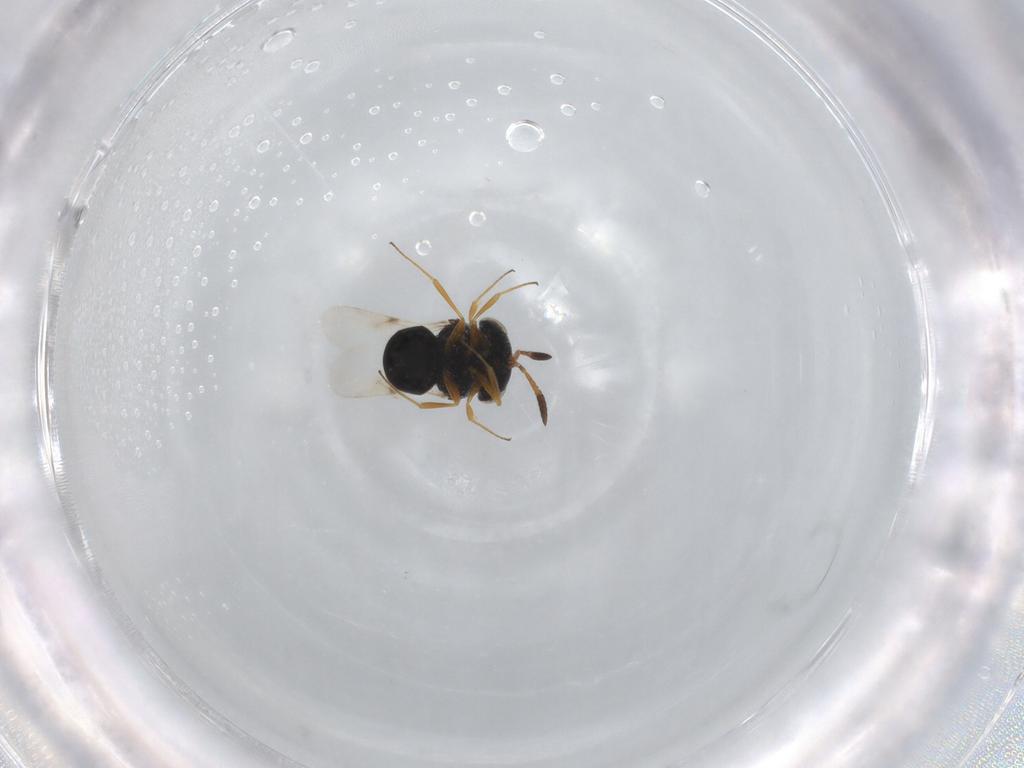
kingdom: Animalia
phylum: Arthropoda
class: Insecta
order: Hymenoptera
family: Scelionidae
